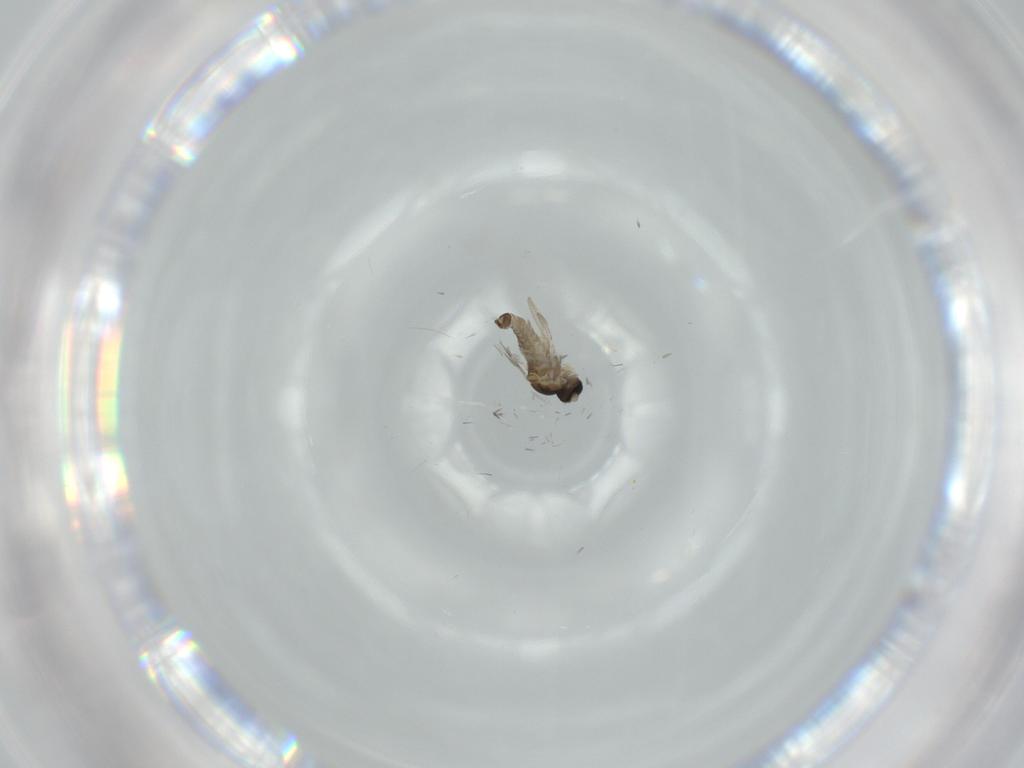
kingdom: Animalia
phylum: Arthropoda
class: Insecta
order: Diptera
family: Cecidomyiidae
